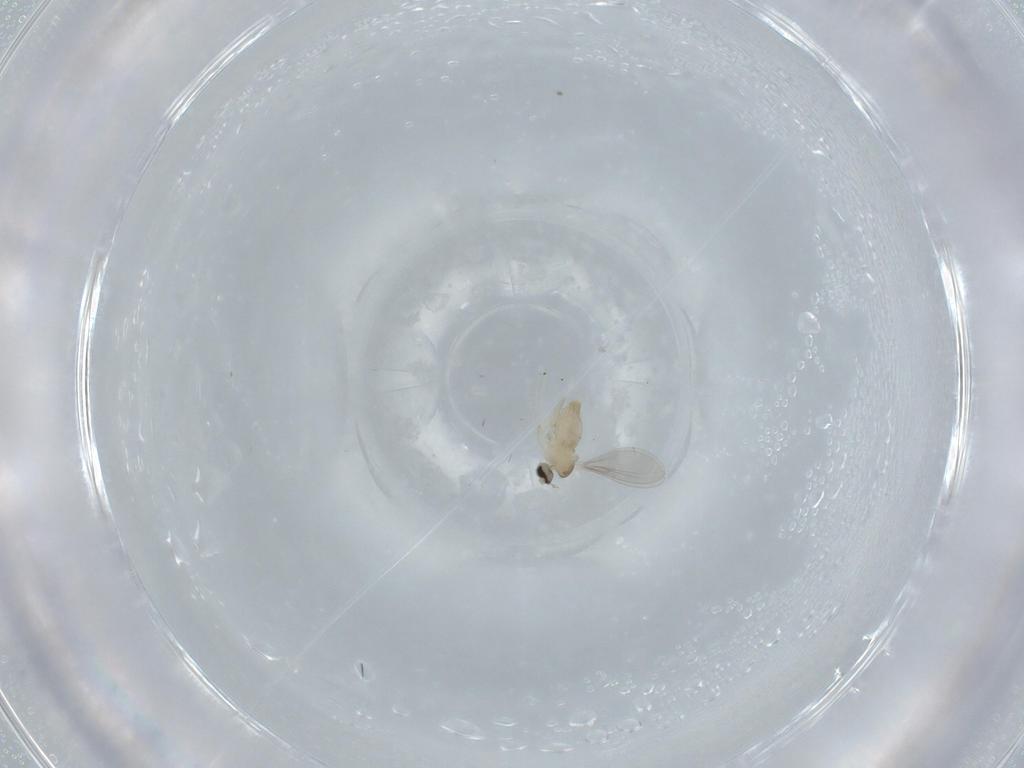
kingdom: Animalia
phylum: Arthropoda
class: Insecta
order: Diptera
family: Cecidomyiidae
